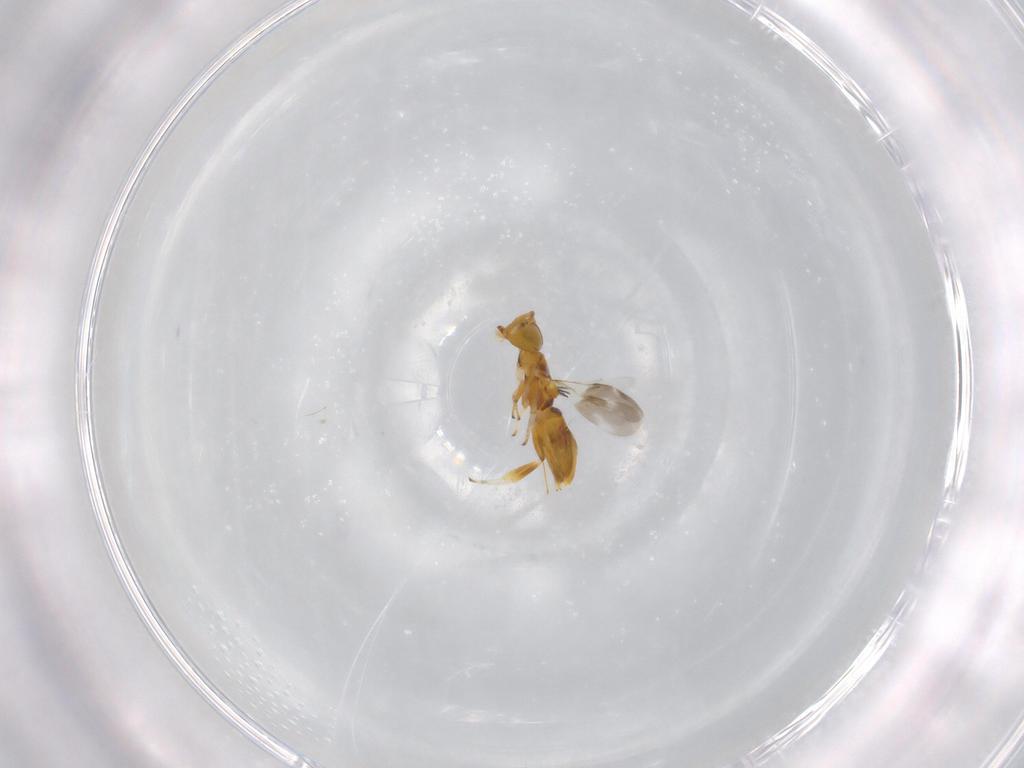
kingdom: Animalia
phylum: Arthropoda
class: Insecta
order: Hymenoptera
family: Encyrtidae
